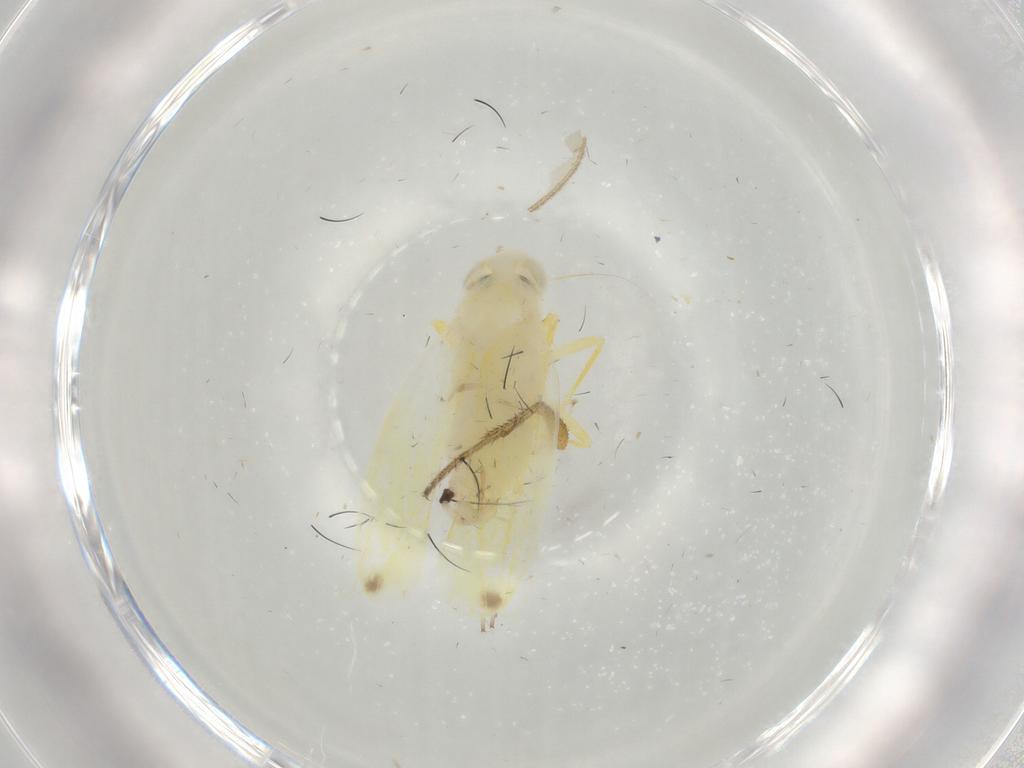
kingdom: Animalia
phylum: Arthropoda
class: Insecta
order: Hemiptera
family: Cicadellidae
